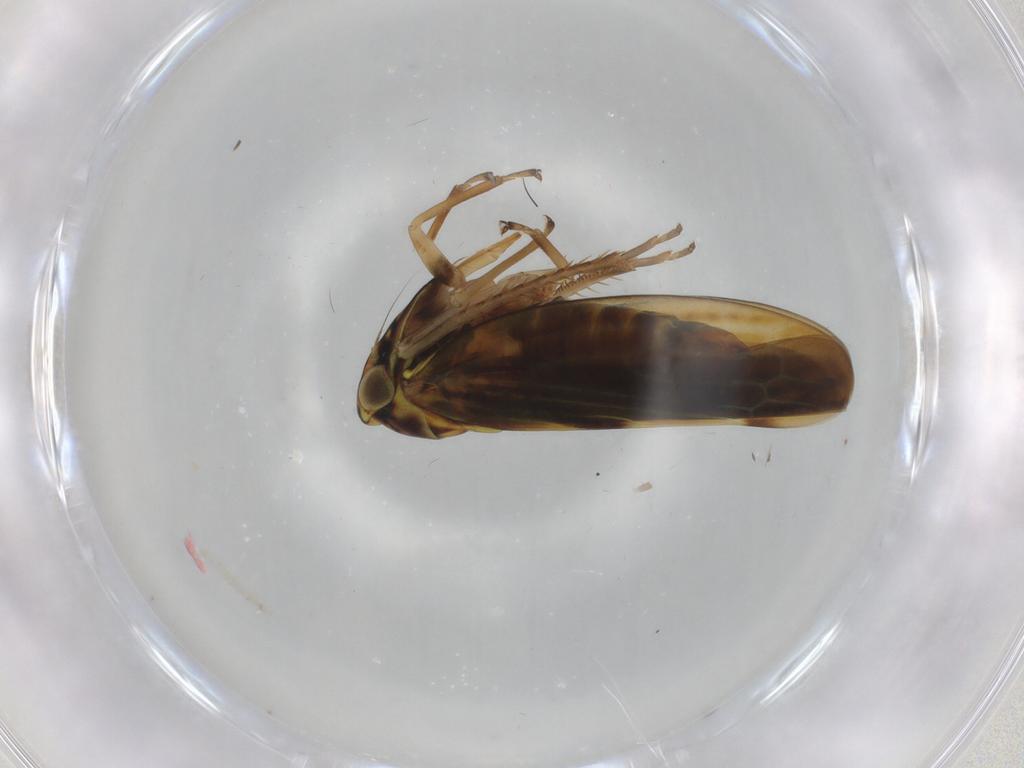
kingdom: Animalia
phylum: Arthropoda
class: Insecta
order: Hemiptera
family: Cicadellidae
